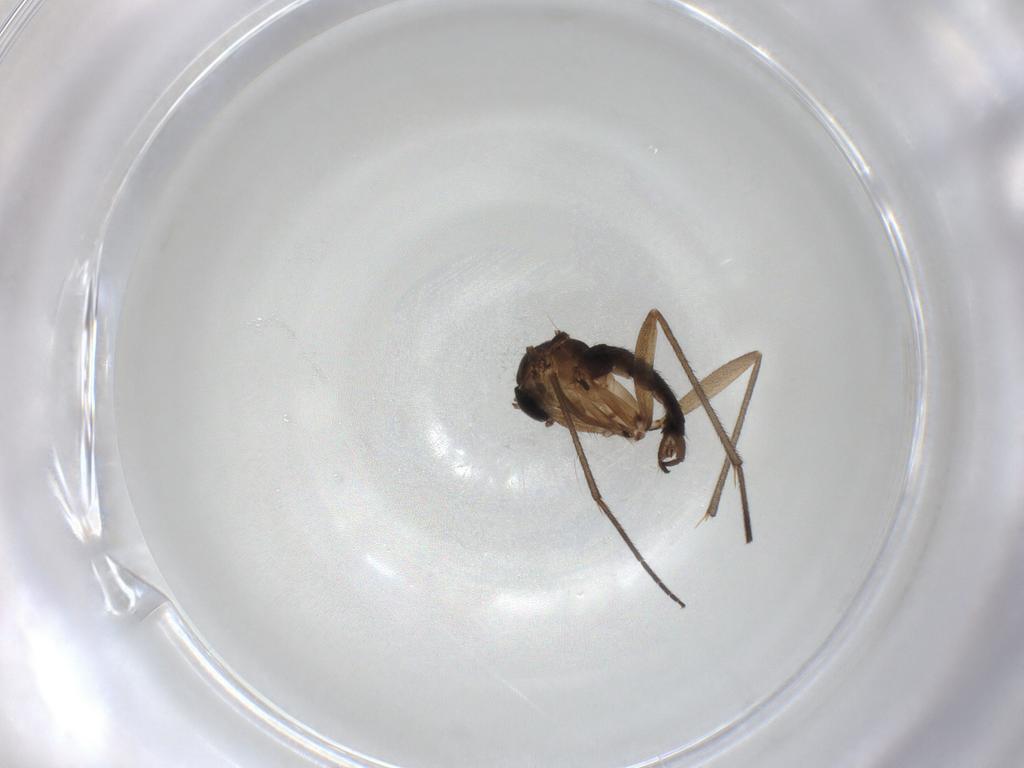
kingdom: Animalia
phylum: Arthropoda
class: Insecta
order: Diptera
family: Sciaridae
